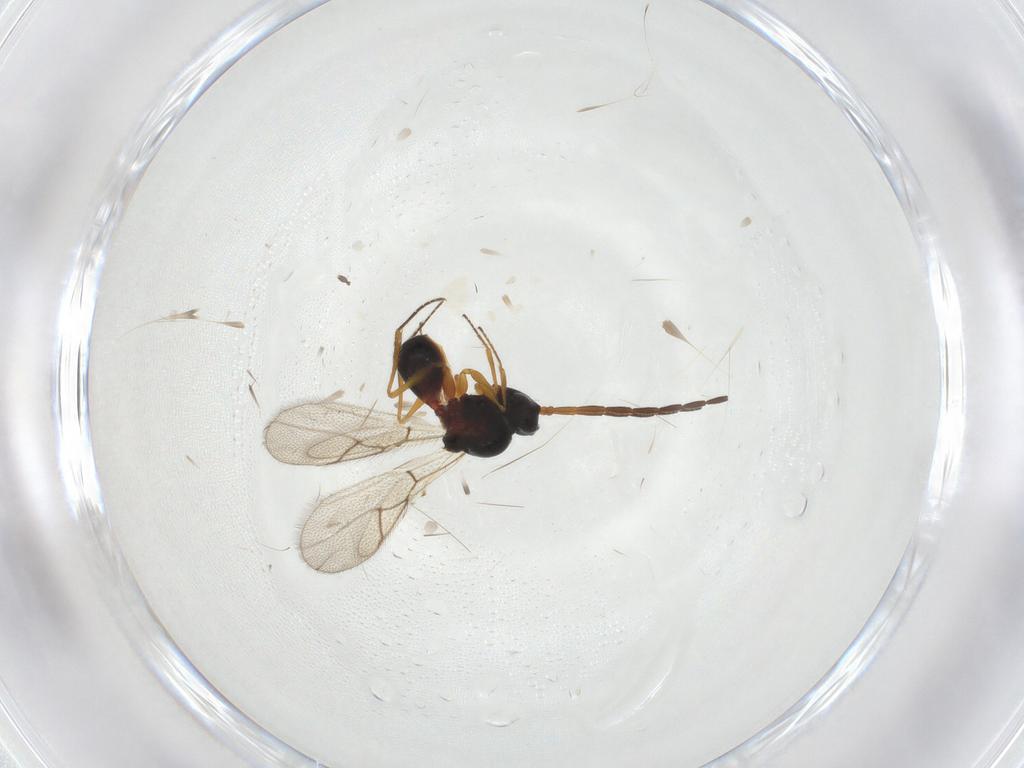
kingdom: Animalia
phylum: Arthropoda
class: Insecta
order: Hymenoptera
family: Figitidae
